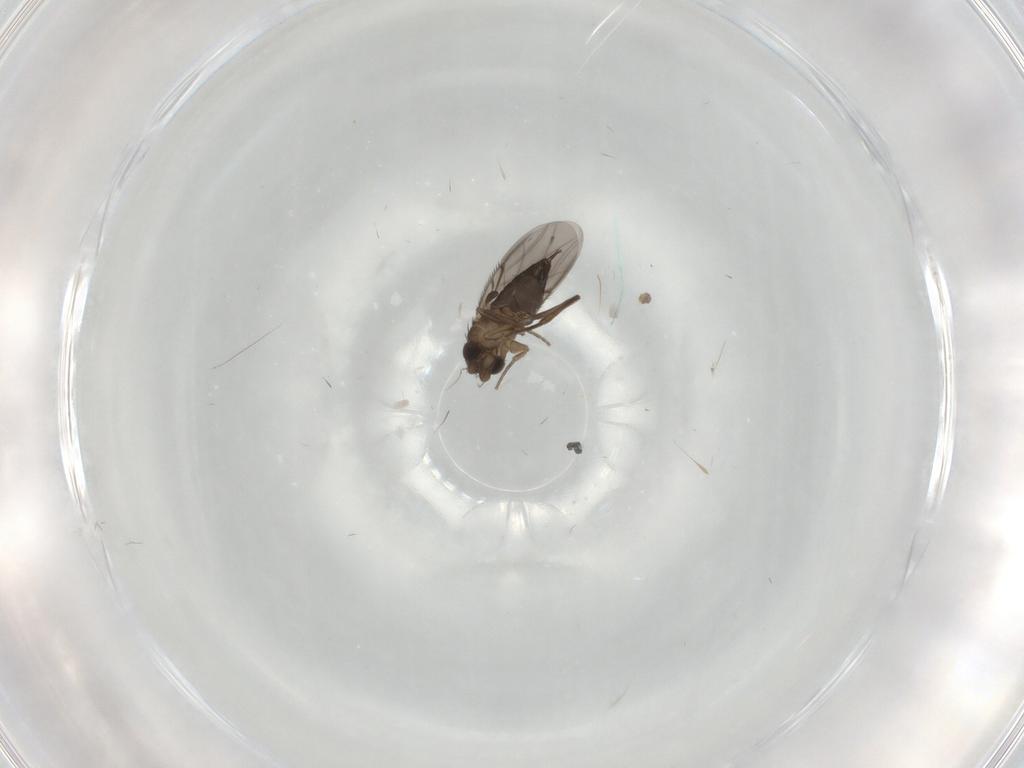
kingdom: Animalia
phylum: Arthropoda
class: Insecta
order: Diptera
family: Phoridae
